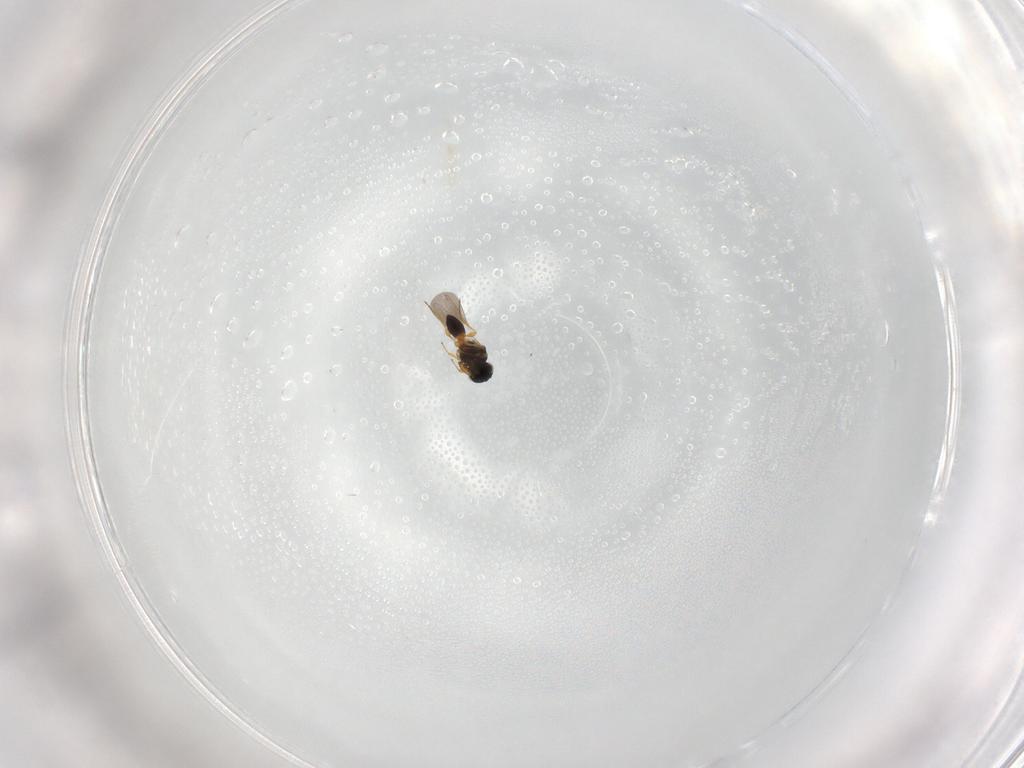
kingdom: Animalia
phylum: Arthropoda
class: Insecta
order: Hymenoptera
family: Platygastridae
